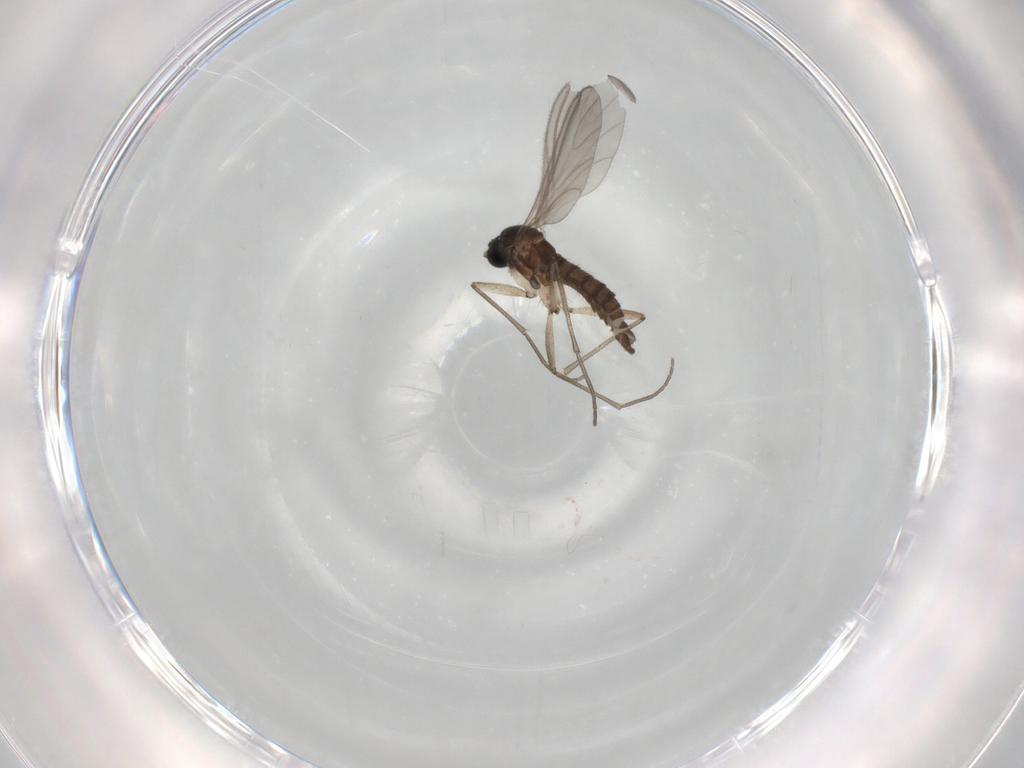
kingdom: Animalia
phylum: Arthropoda
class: Insecta
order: Diptera
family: Sciaridae
